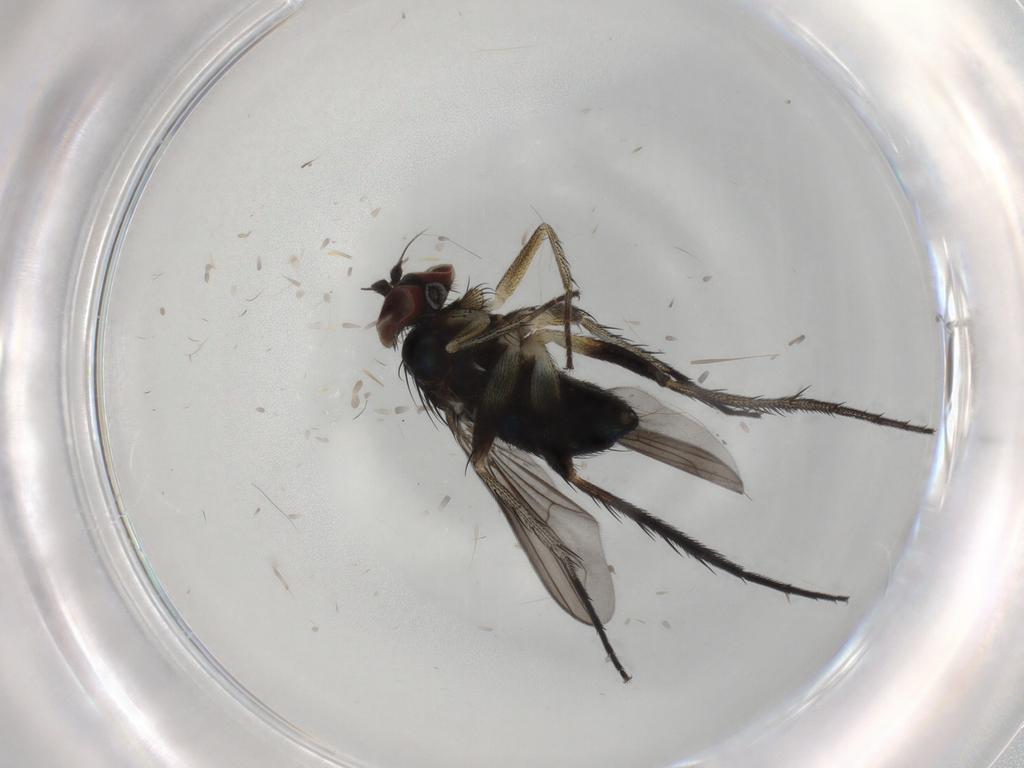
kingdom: Animalia
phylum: Arthropoda
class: Insecta
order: Diptera
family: Dolichopodidae
